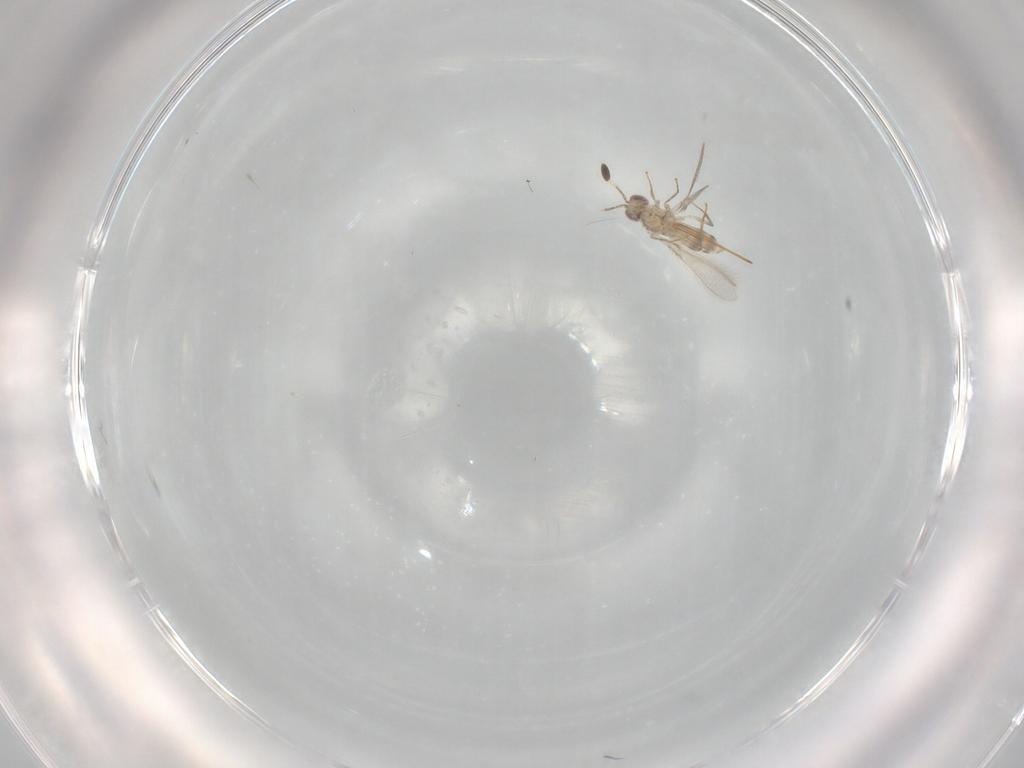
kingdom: Animalia
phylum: Arthropoda
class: Insecta
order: Hymenoptera
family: Mymaridae
